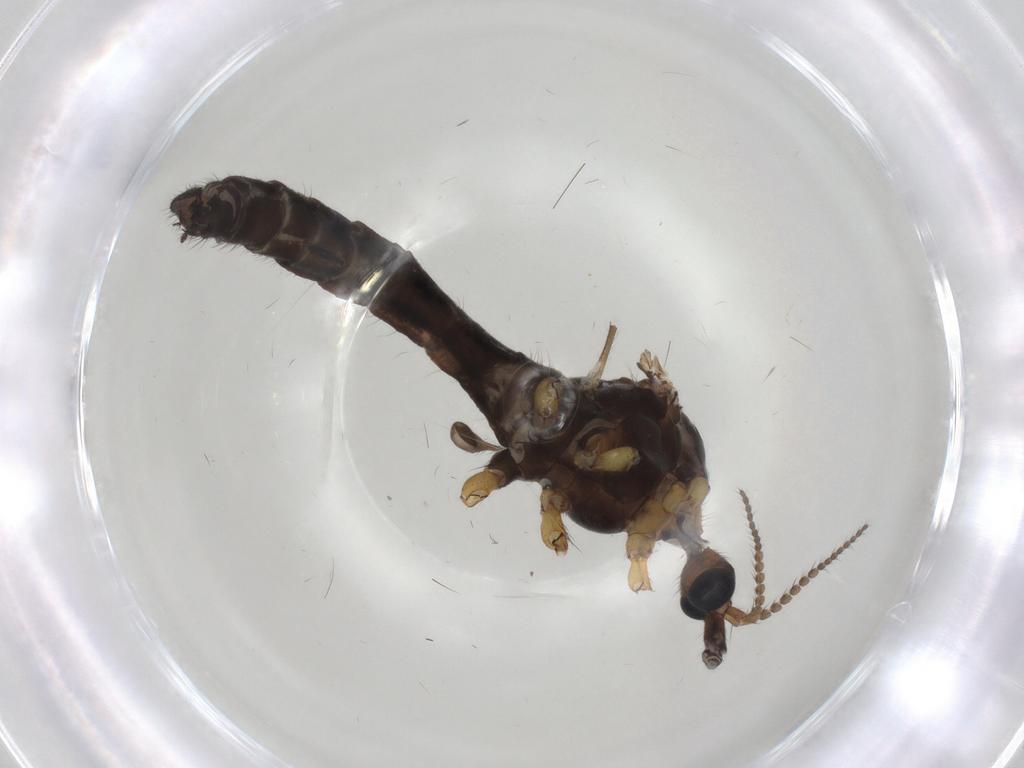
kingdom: Animalia
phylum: Arthropoda
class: Insecta
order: Diptera
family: Limoniidae
